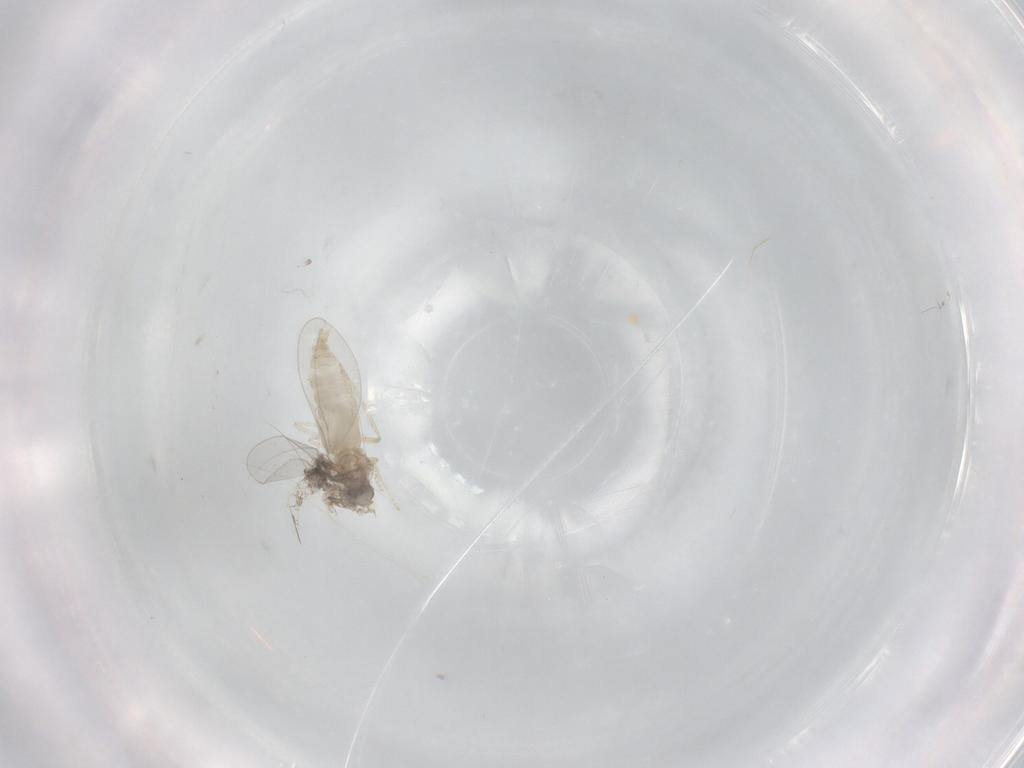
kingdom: Animalia
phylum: Arthropoda
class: Insecta
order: Diptera
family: Cecidomyiidae
